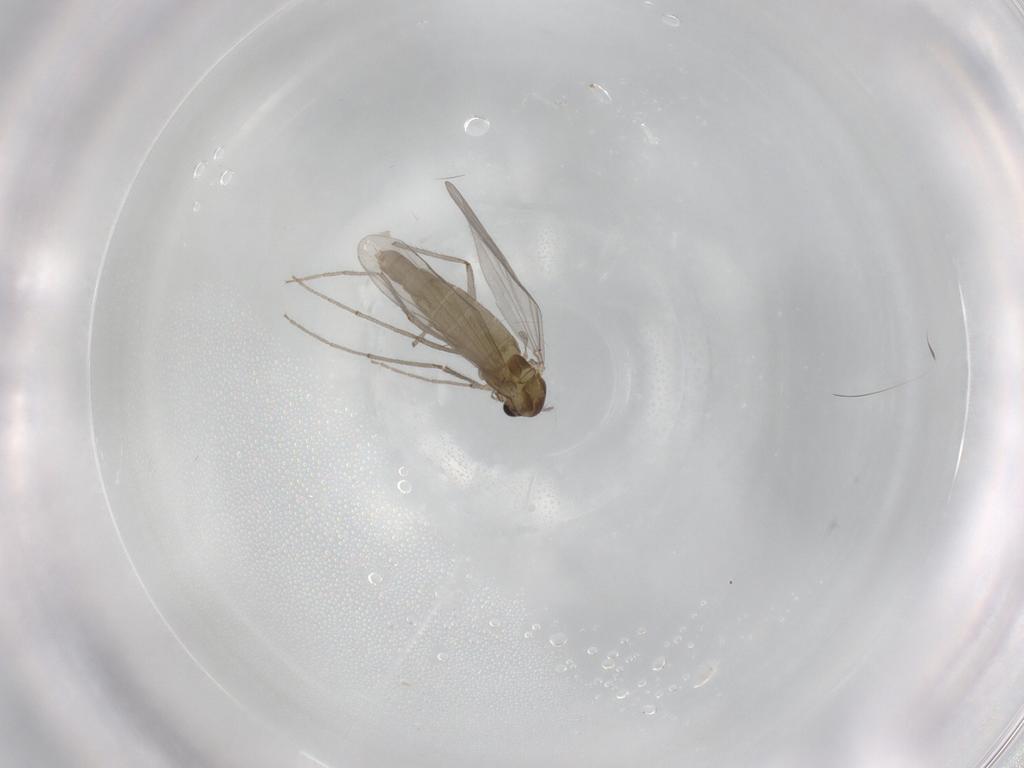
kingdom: Animalia
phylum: Arthropoda
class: Insecta
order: Diptera
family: Chironomidae
